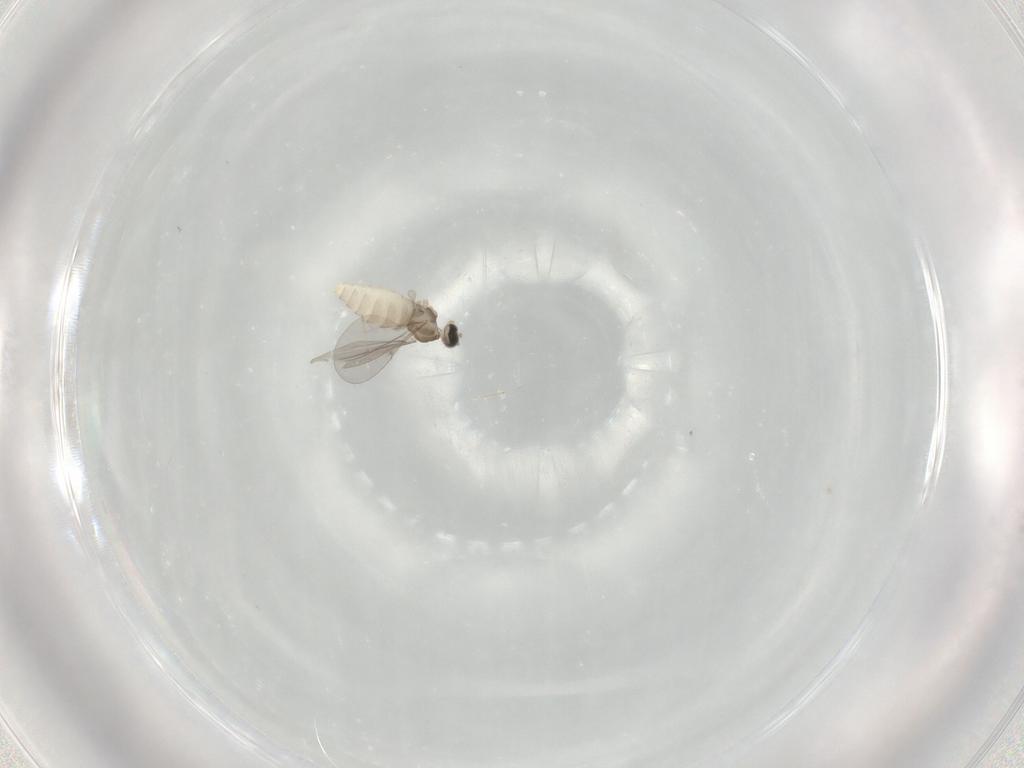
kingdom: Animalia
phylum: Arthropoda
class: Insecta
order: Diptera
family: Cecidomyiidae
